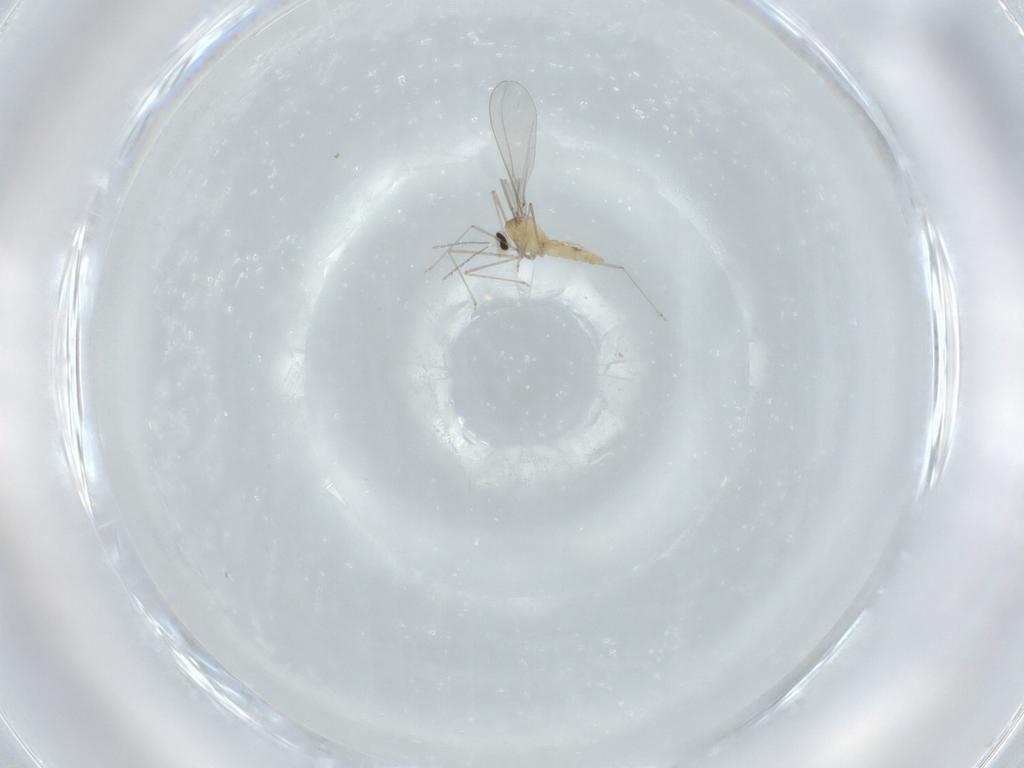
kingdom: Animalia
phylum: Arthropoda
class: Insecta
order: Diptera
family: Cecidomyiidae
